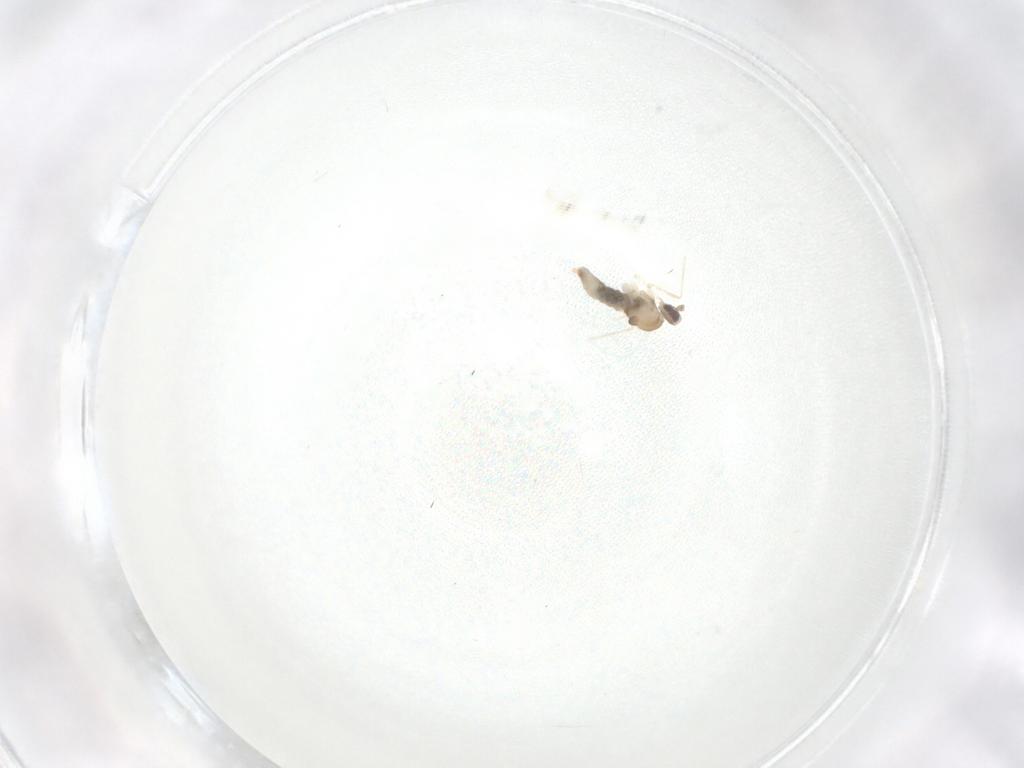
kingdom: Animalia
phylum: Arthropoda
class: Insecta
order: Diptera
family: Cecidomyiidae
